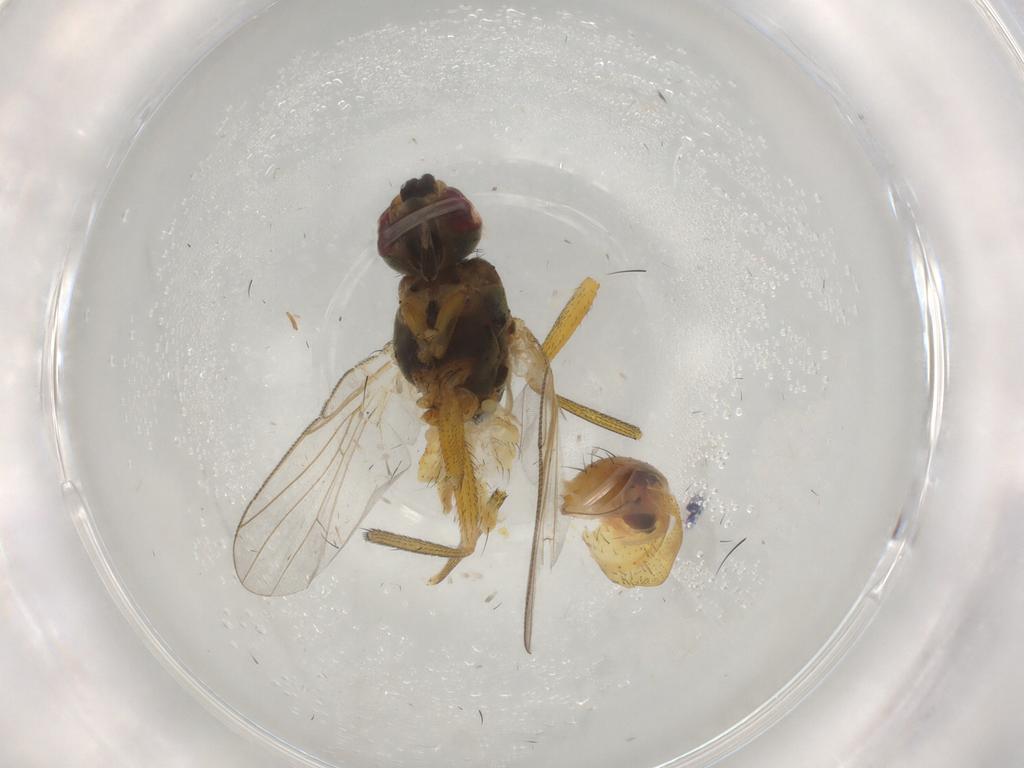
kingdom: Animalia
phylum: Arthropoda
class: Insecta
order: Diptera
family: Muscidae
